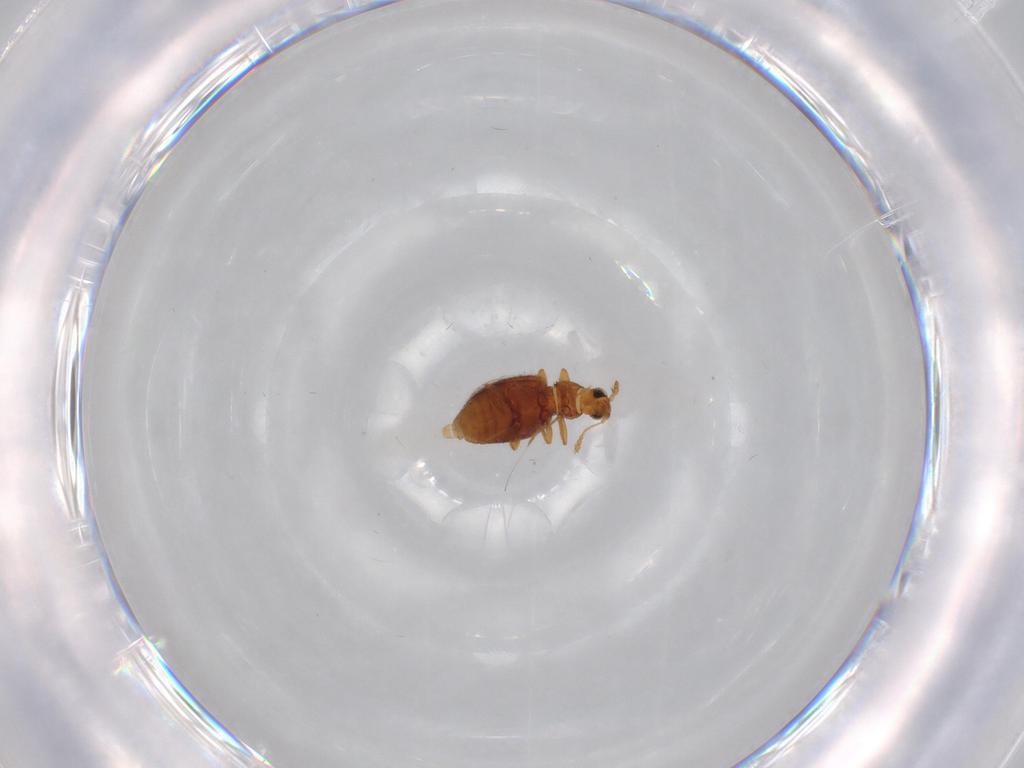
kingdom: Animalia
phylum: Arthropoda
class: Insecta
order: Coleoptera
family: Latridiidae
